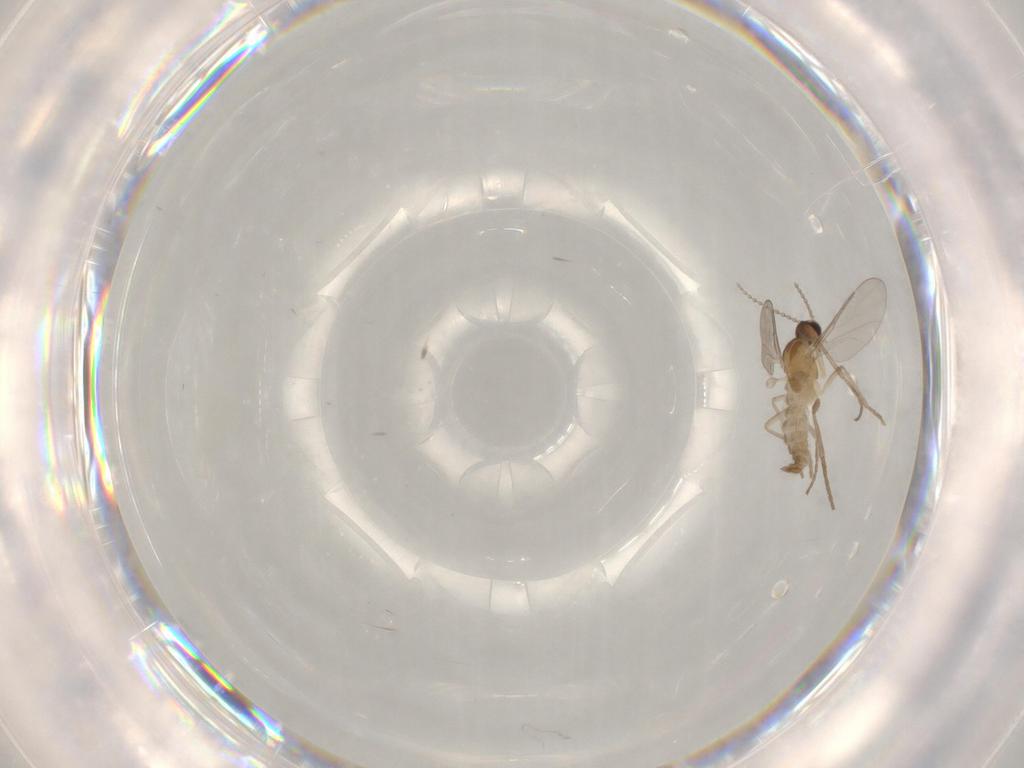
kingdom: Animalia
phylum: Arthropoda
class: Insecta
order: Diptera
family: Cecidomyiidae
